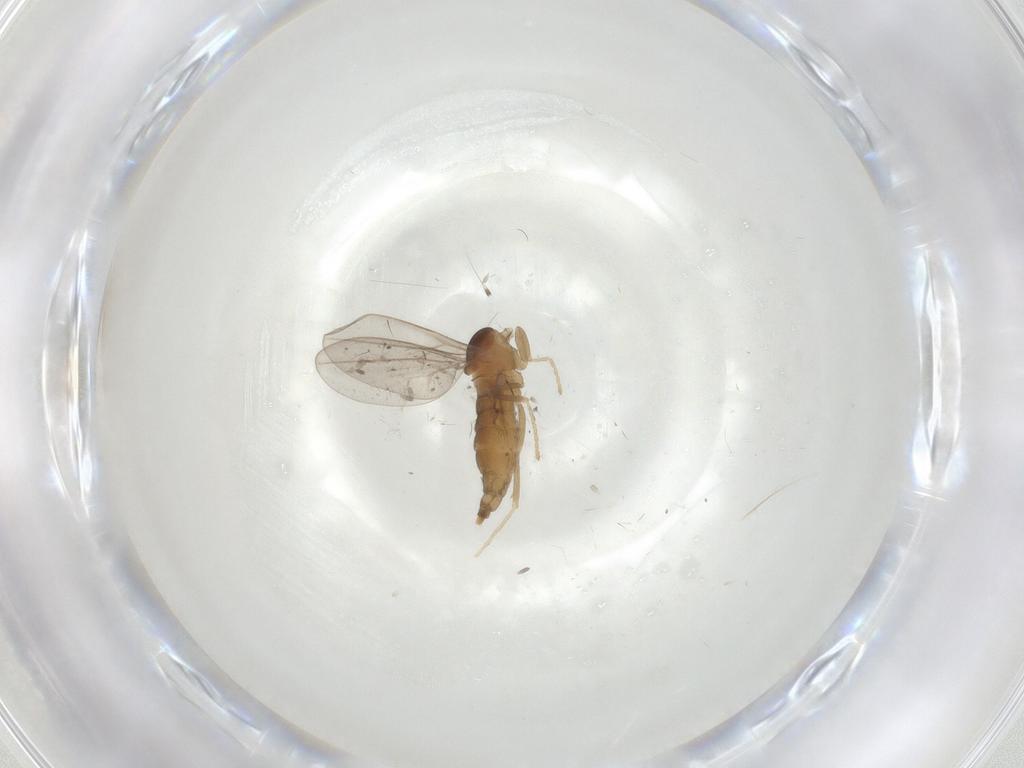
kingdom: Animalia
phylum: Arthropoda
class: Insecta
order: Diptera
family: Cecidomyiidae
